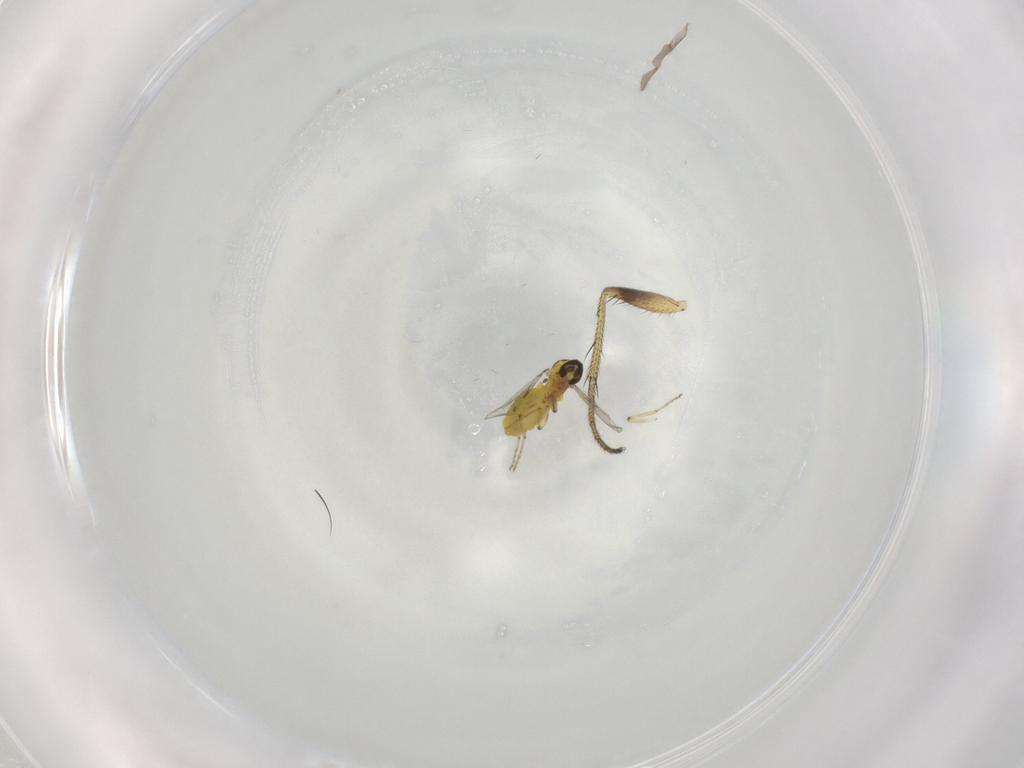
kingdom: Animalia
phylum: Arthropoda
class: Insecta
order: Diptera
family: Ceratopogonidae
